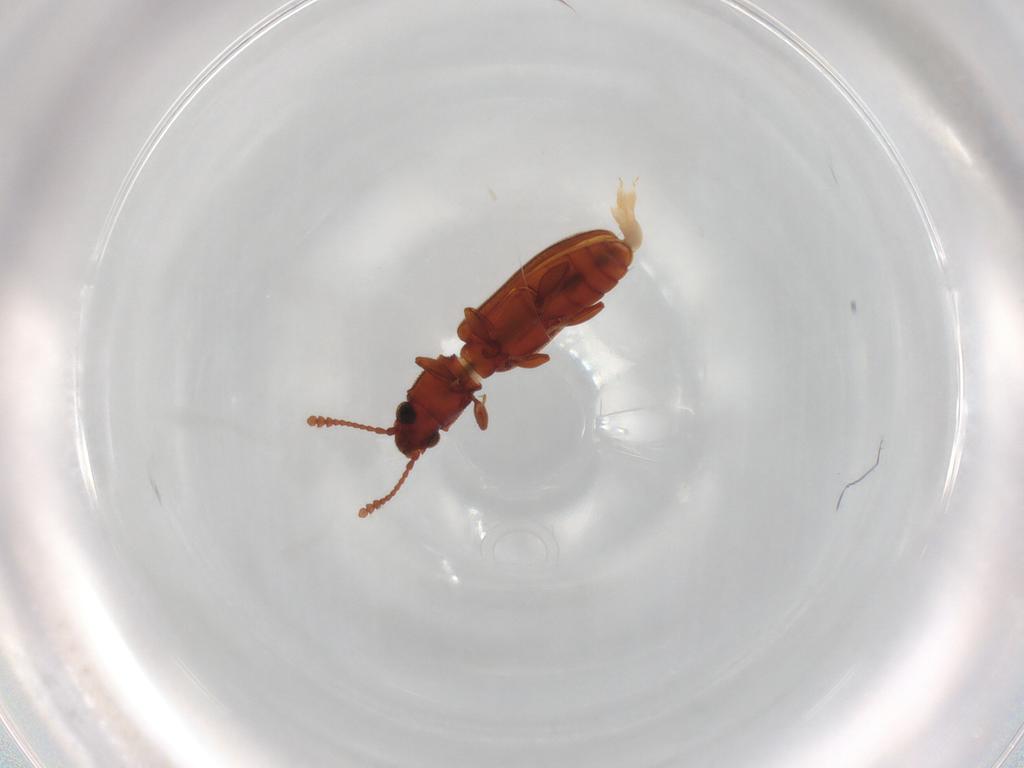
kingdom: Animalia
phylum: Arthropoda
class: Insecta
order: Coleoptera
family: Silvanidae
